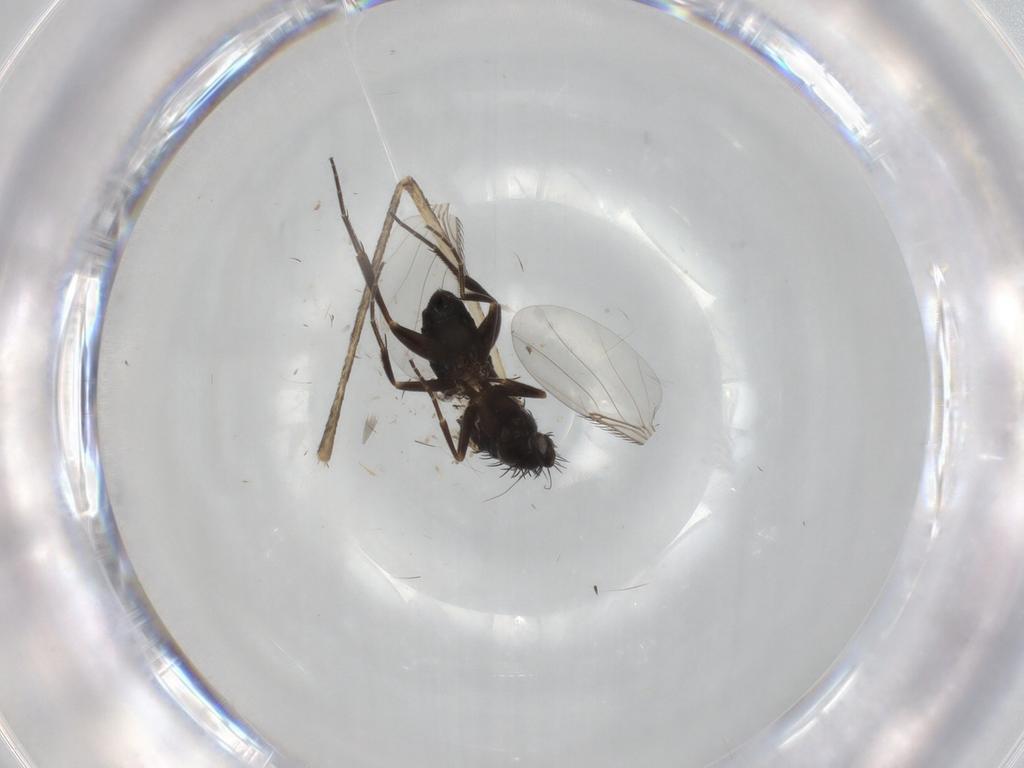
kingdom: Animalia
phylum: Arthropoda
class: Insecta
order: Diptera
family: Phoridae
